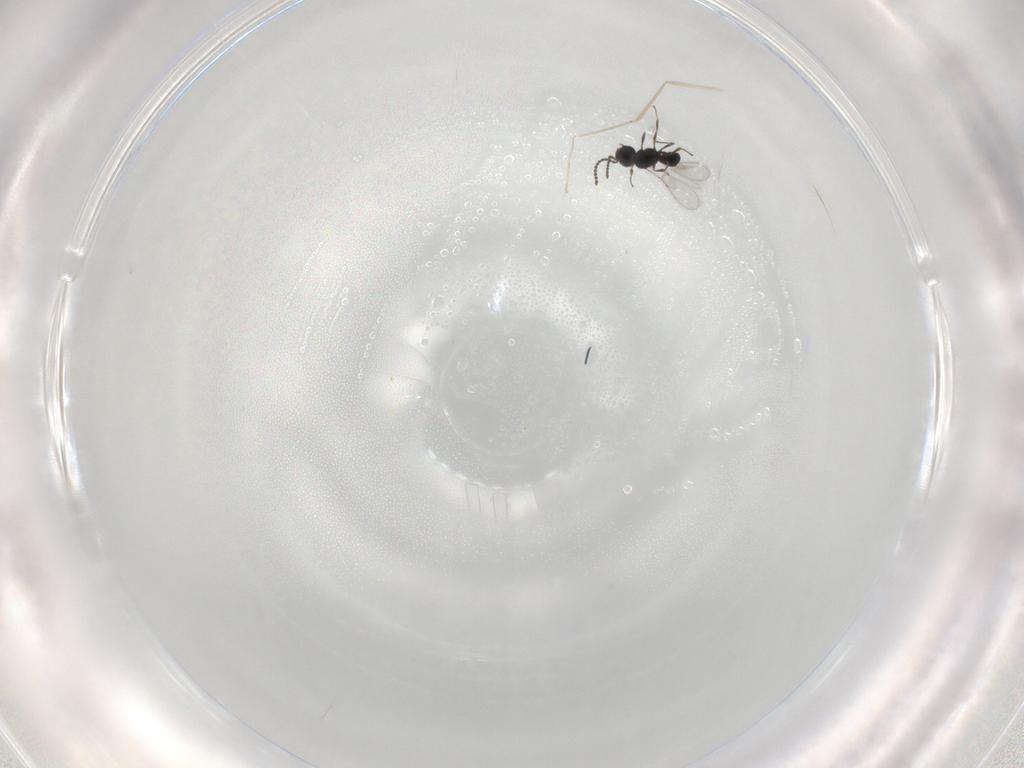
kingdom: Animalia
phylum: Arthropoda
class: Insecta
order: Hymenoptera
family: Scelionidae
